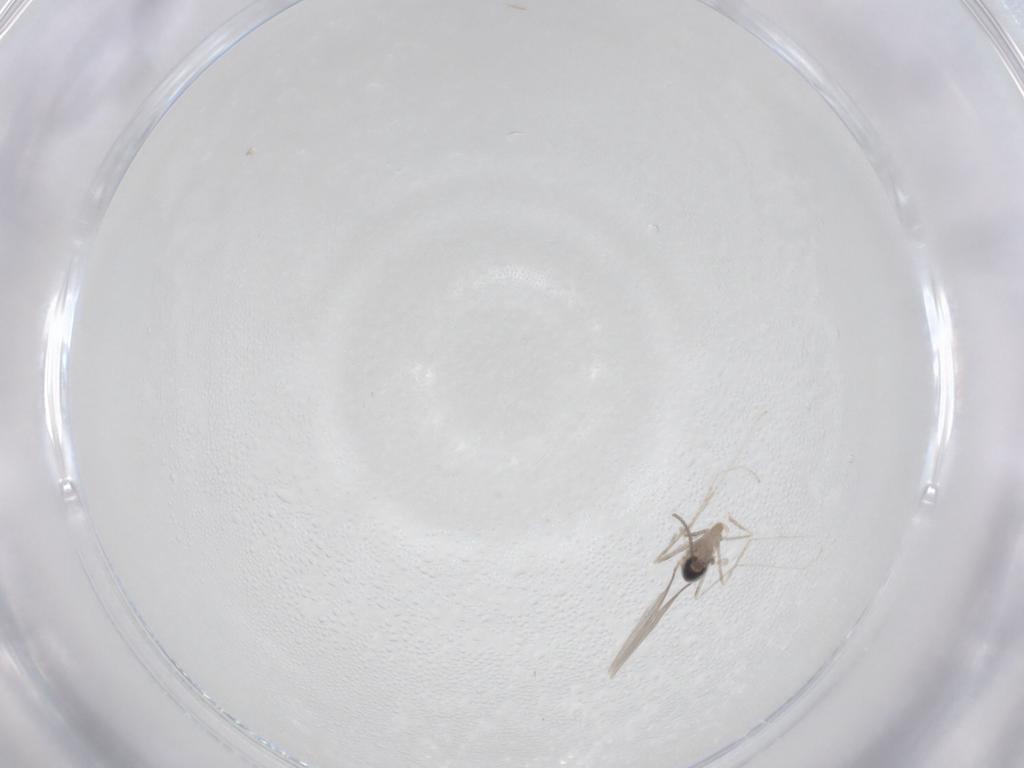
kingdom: Animalia
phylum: Arthropoda
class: Insecta
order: Diptera
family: Cecidomyiidae
